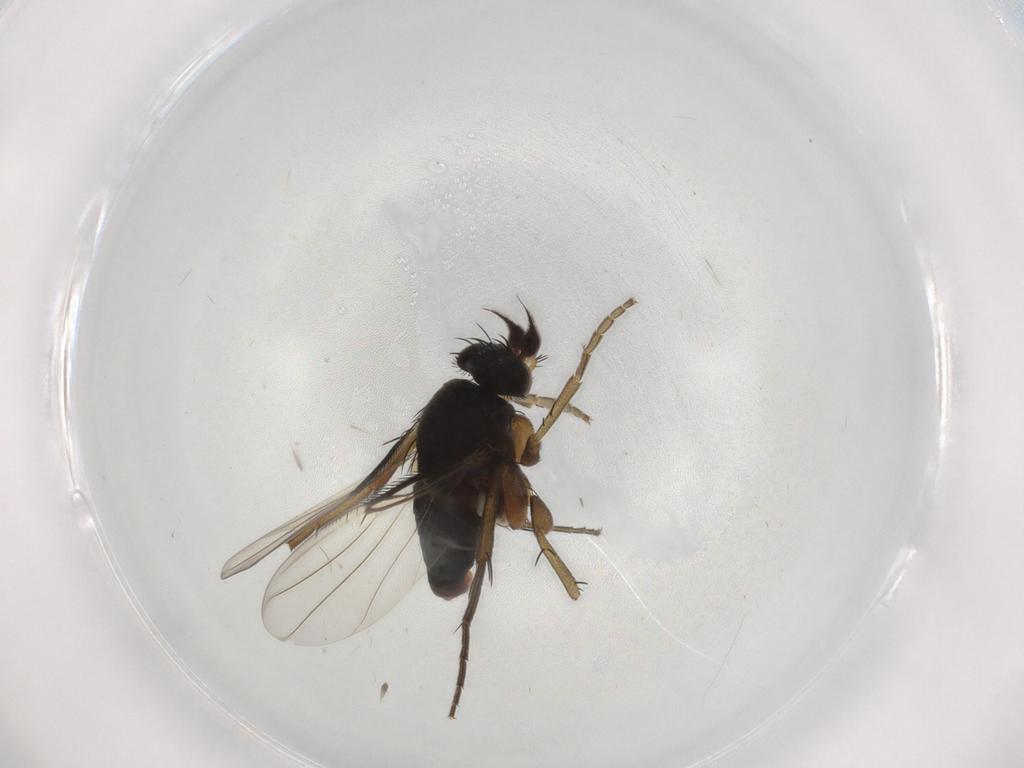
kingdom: Animalia
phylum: Arthropoda
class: Insecta
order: Diptera
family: Phoridae
